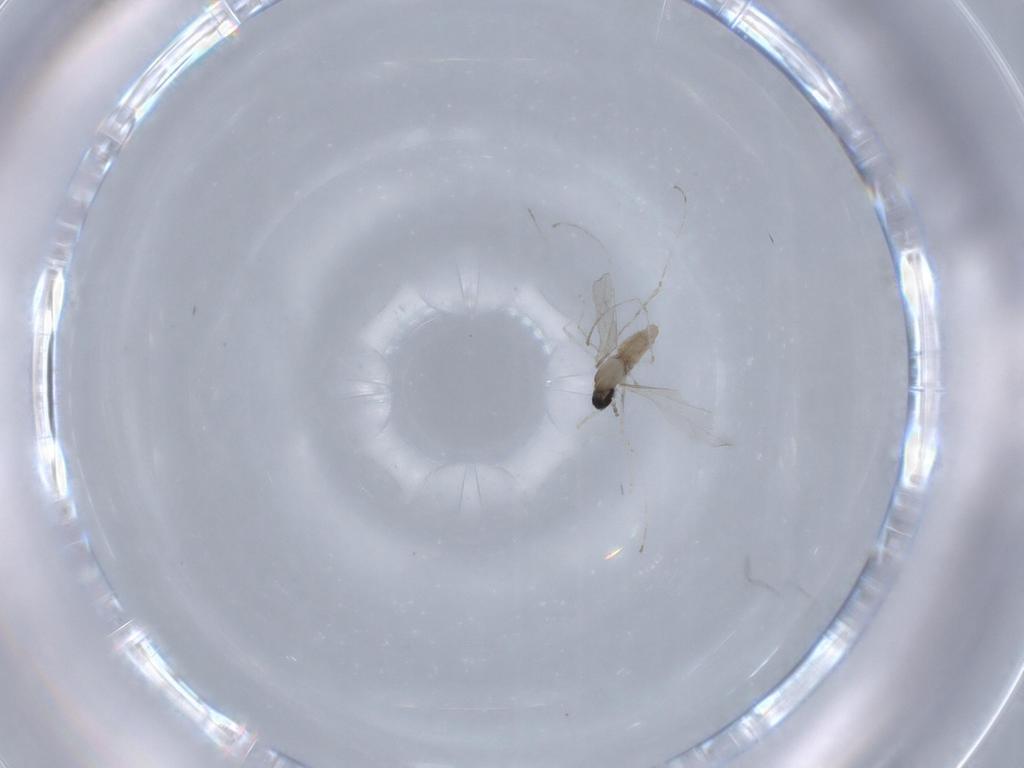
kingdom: Animalia
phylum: Arthropoda
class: Insecta
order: Diptera
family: Cecidomyiidae
